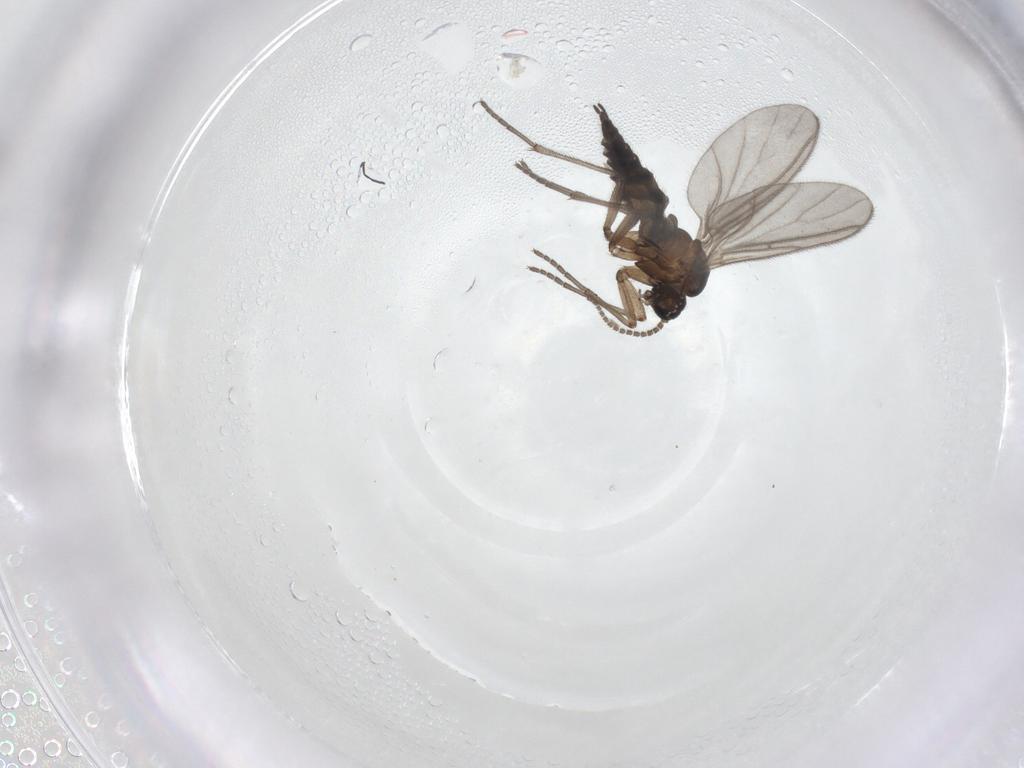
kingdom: Animalia
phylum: Arthropoda
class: Insecta
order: Diptera
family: Sciaridae
